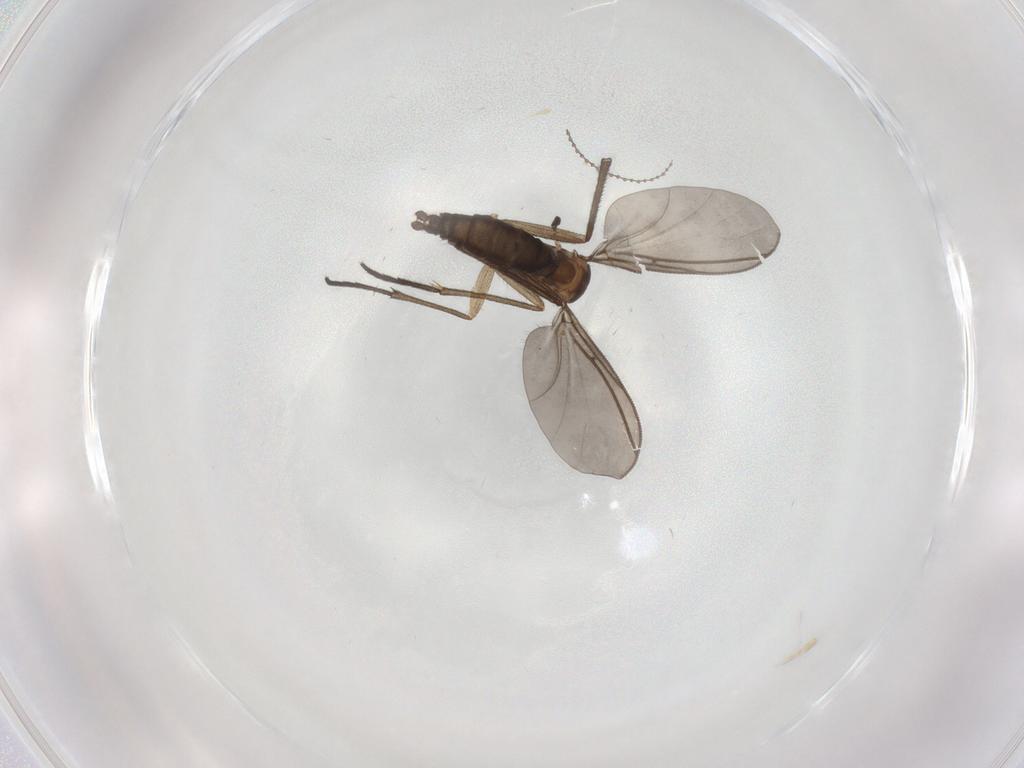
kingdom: Animalia
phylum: Arthropoda
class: Insecta
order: Diptera
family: Sciaridae
